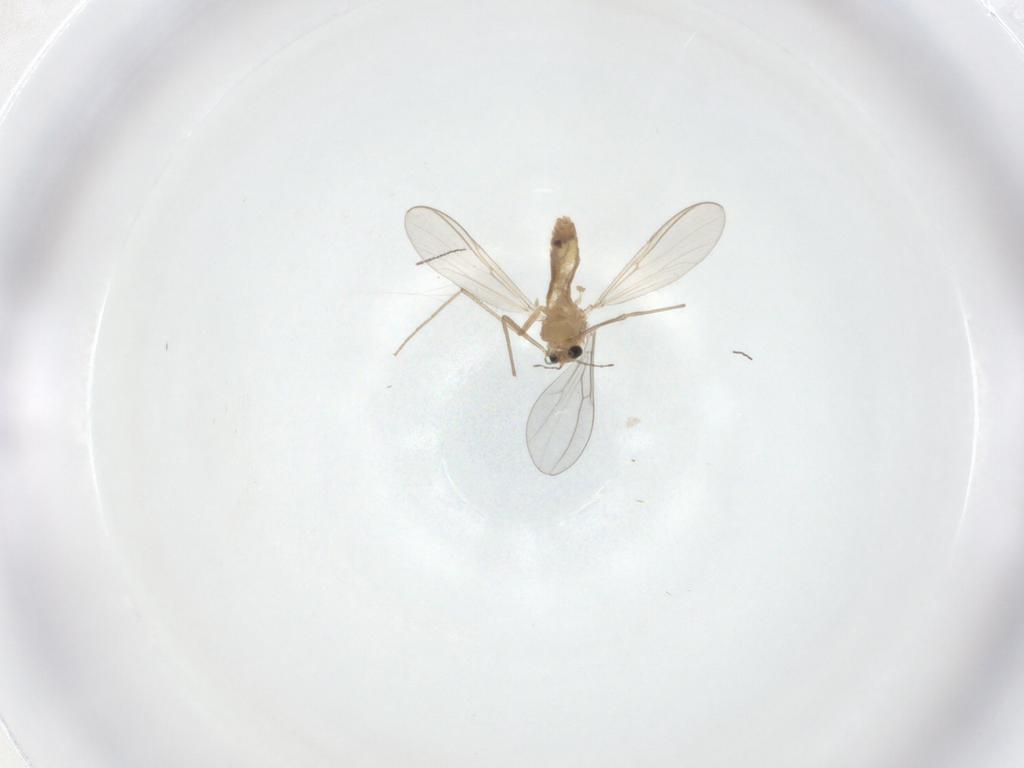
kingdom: Animalia
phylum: Arthropoda
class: Insecta
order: Diptera
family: Cecidomyiidae
